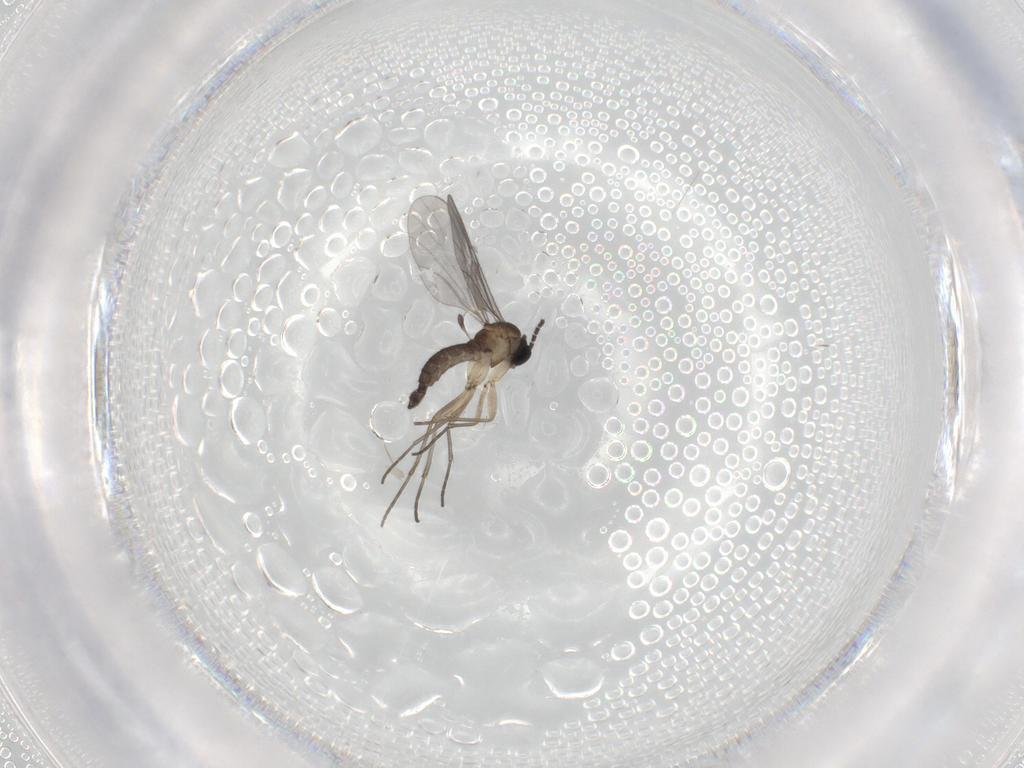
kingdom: Animalia
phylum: Arthropoda
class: Insecta
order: Diptera
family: Sciaridae
